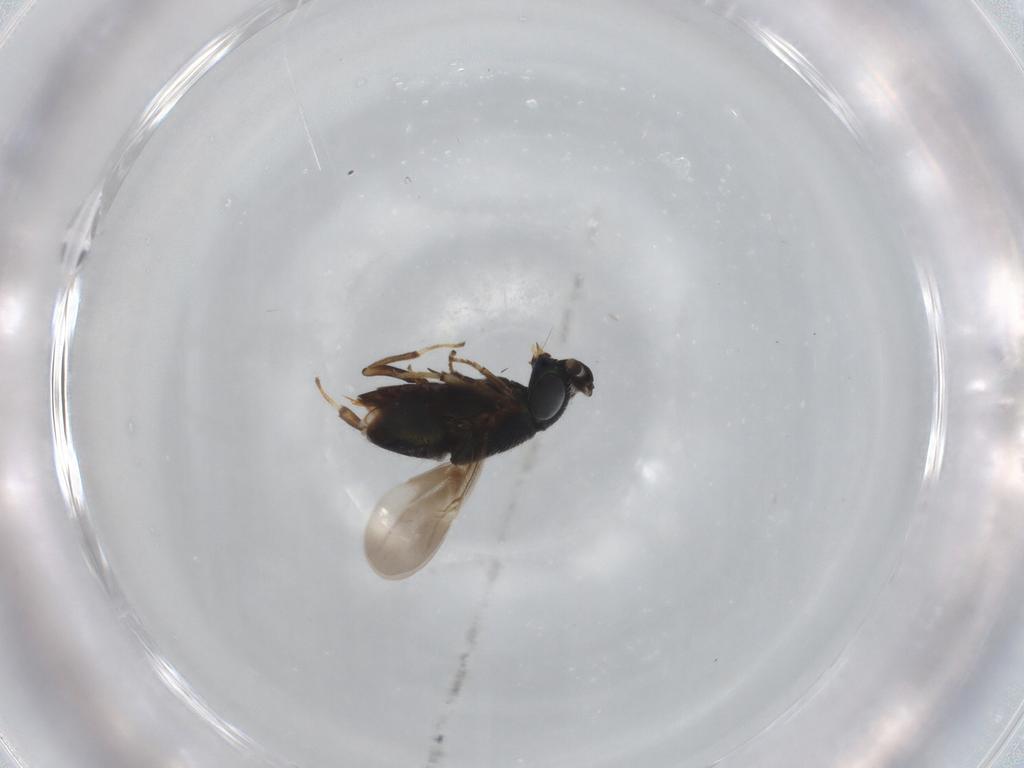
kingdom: Animalia
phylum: Arthropoda
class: Insecta
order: Hymenoptera
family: Encyrtidae
